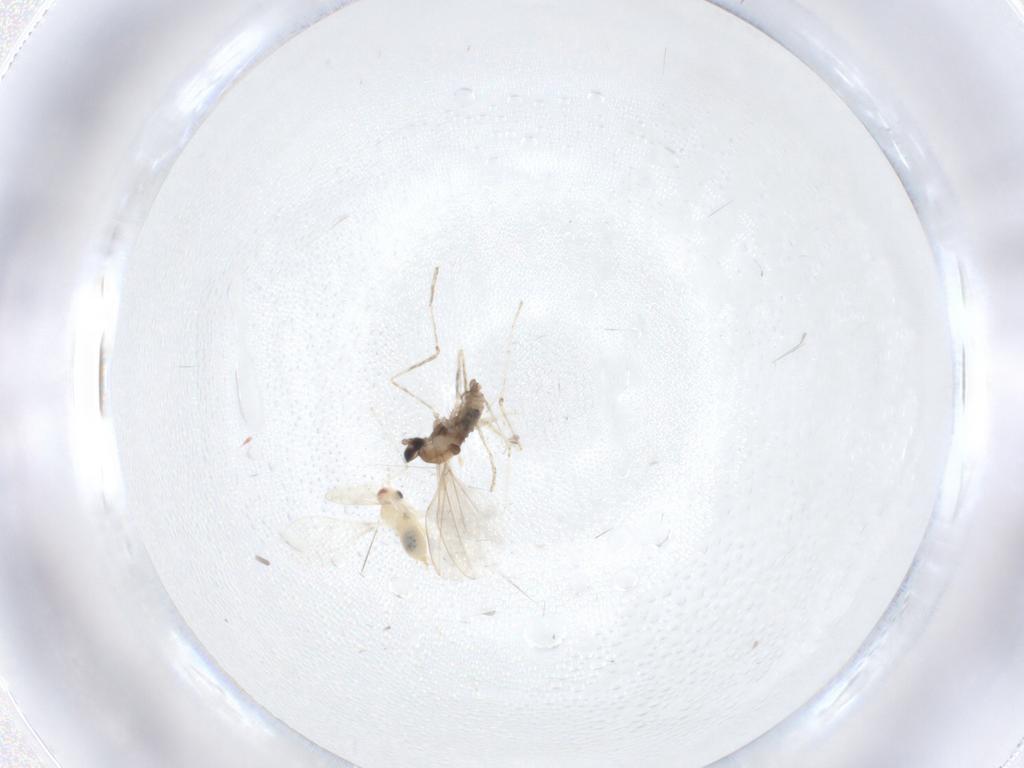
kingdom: Animalia
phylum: Arthropoda
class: Insecta
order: Diptera
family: Cecidomyiidae
